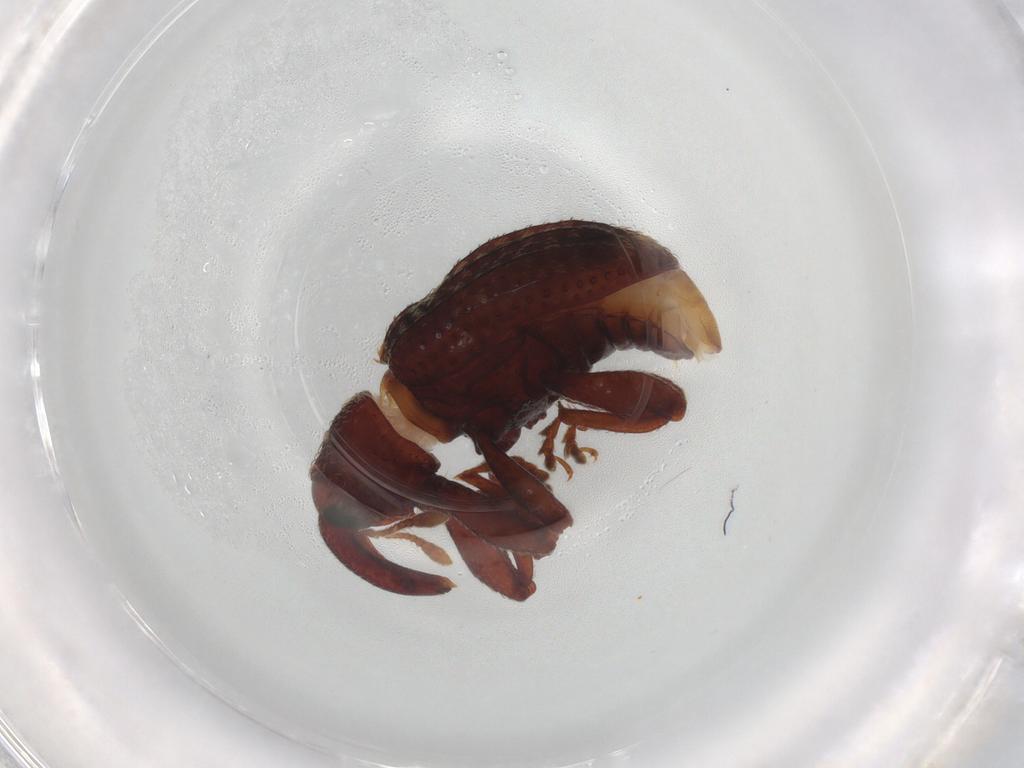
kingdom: Animalia
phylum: Arthropoda
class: Insecta
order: Coleoptera
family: Curculionidae
